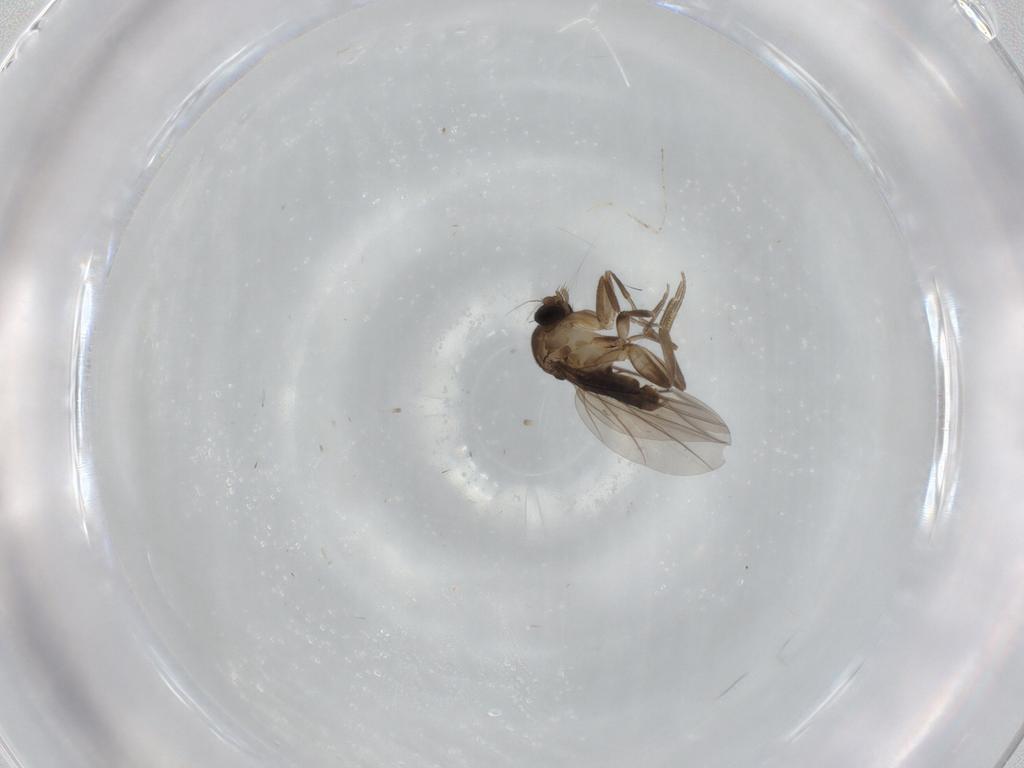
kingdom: Animalia
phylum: Arthropoda
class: Insecta
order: Diptera
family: Phoridae
